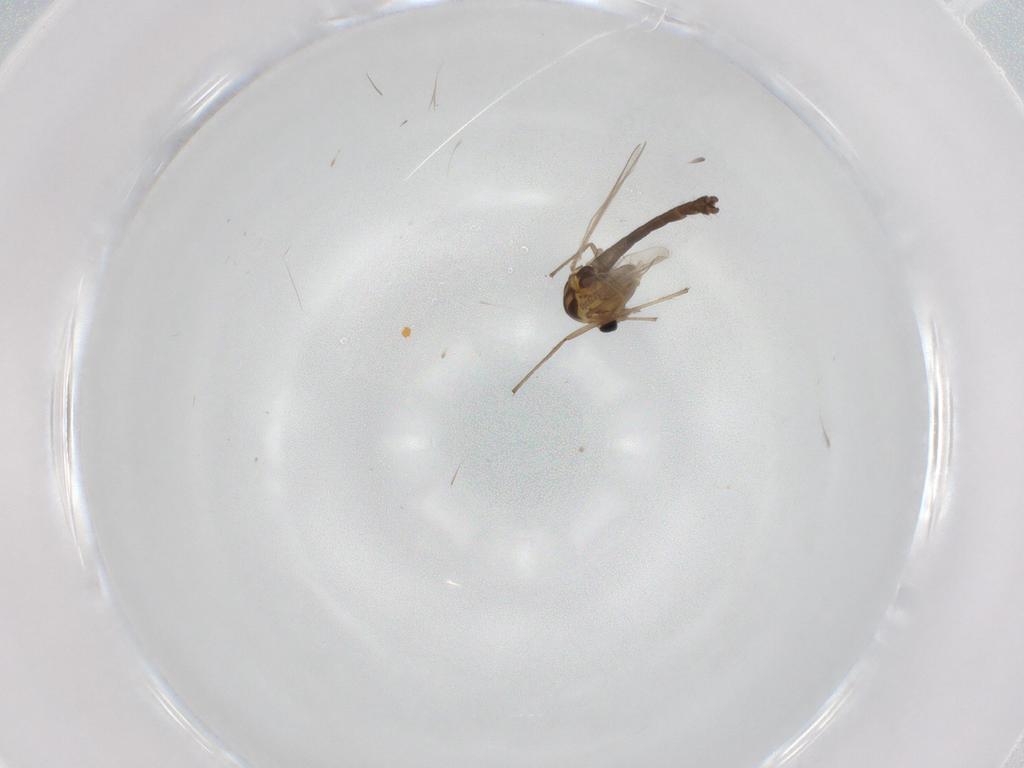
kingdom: Animalia
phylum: Arthropoda
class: Insecta
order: Diptera
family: Chironomidae
